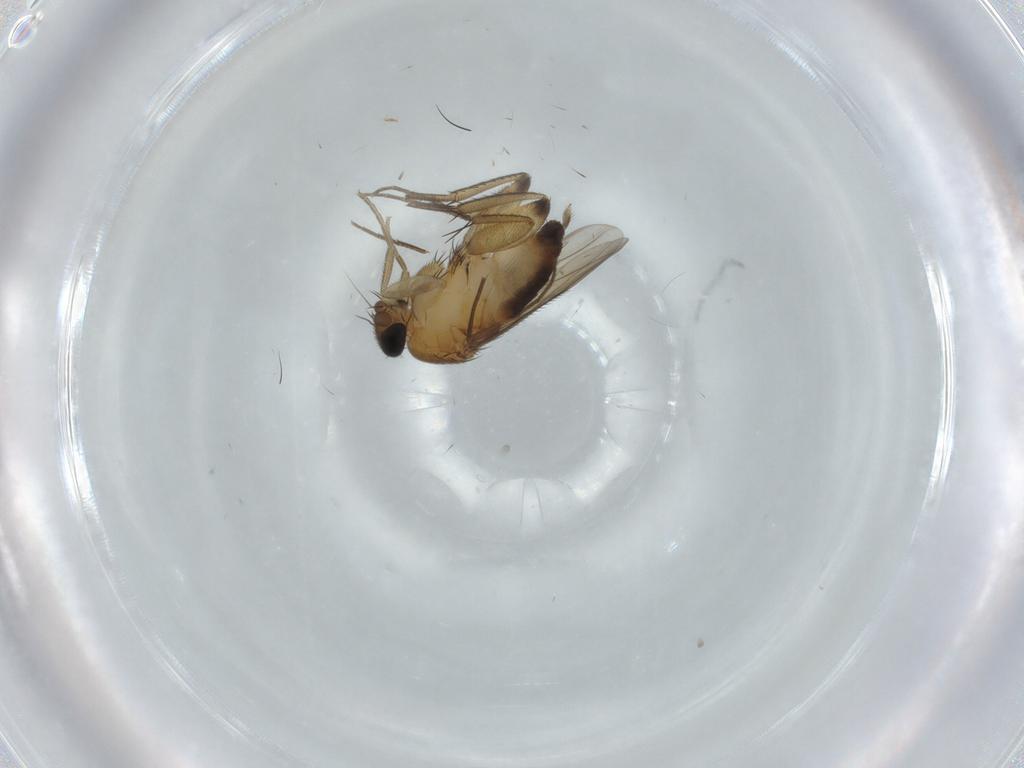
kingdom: Animalia
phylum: Arthropoda
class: Insecta
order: Diptera
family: Phoridae
